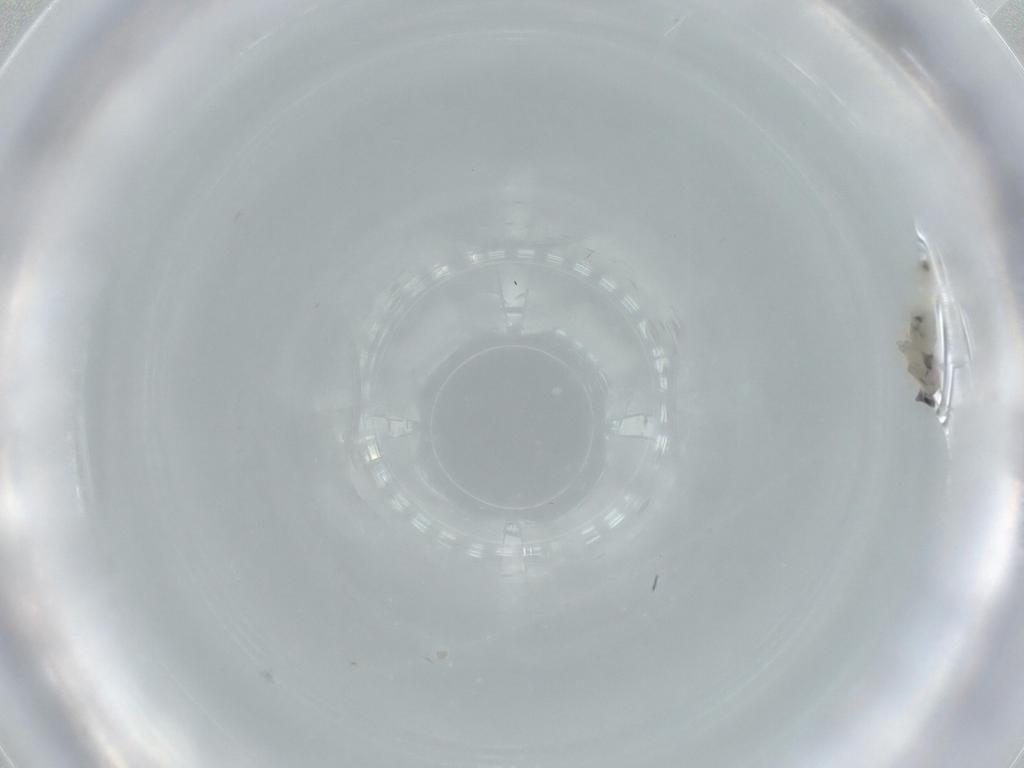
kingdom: Animalia
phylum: Arthropoda
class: Insecta
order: Diptera
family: Cecidomyiidae
